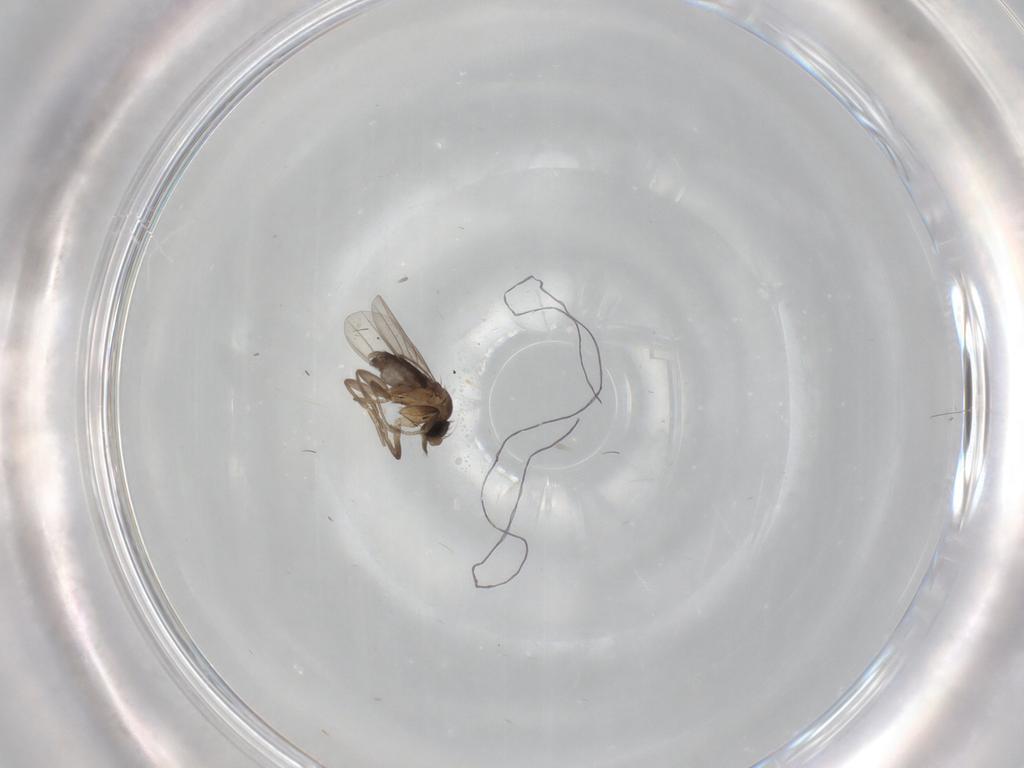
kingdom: Animalia
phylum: Arthropoda
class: Insecta
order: Diptera
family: Phoridae
